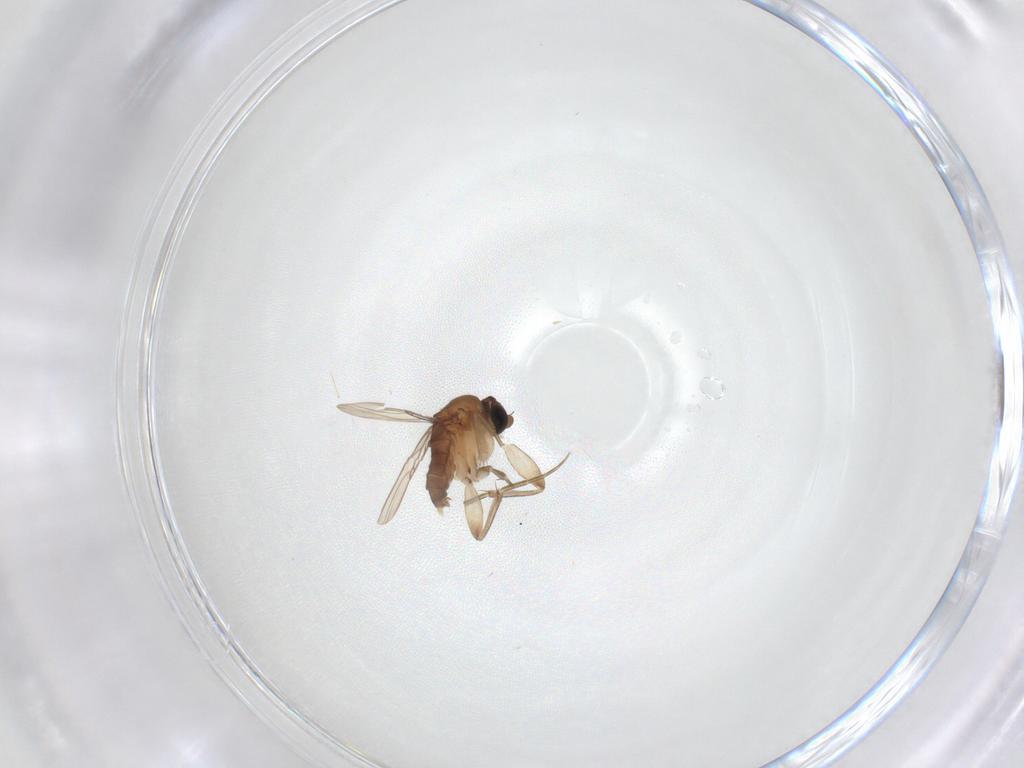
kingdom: Animalia
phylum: Arthropoda
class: Insecta
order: Diptera
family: Phoridae
